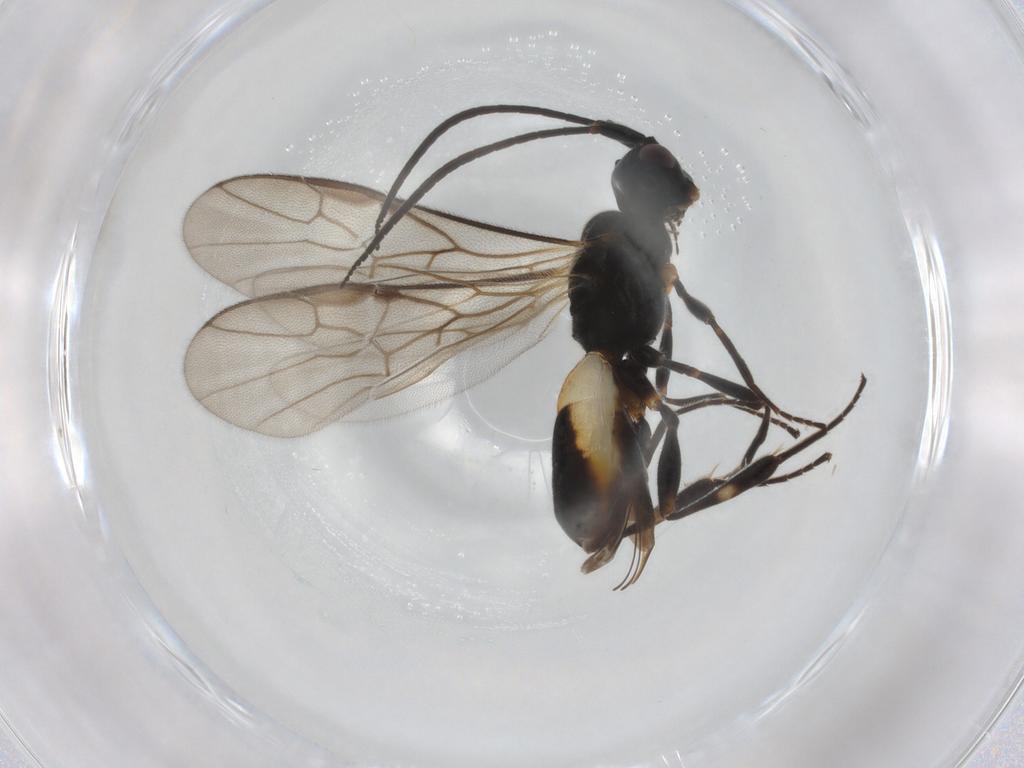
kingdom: Animalia
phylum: Arthropoda
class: Insecta
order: Hymenoptera
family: Braconidae
